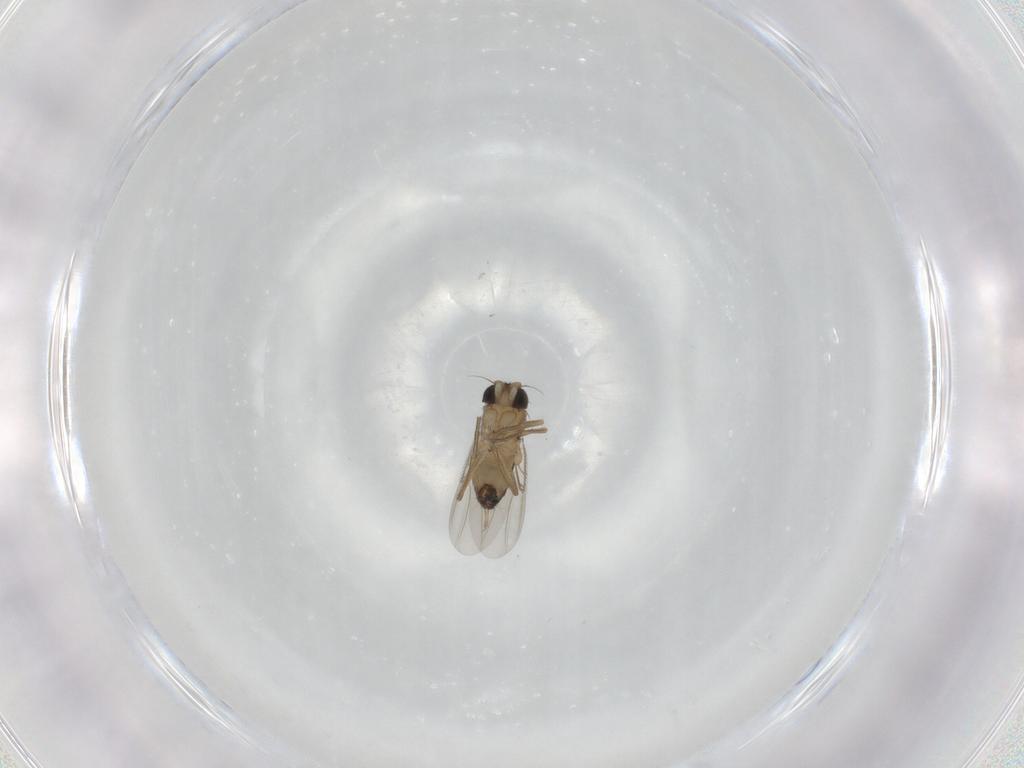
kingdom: Animalia
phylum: Arthropoda
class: Insecta
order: Diptera
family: Phoridae
